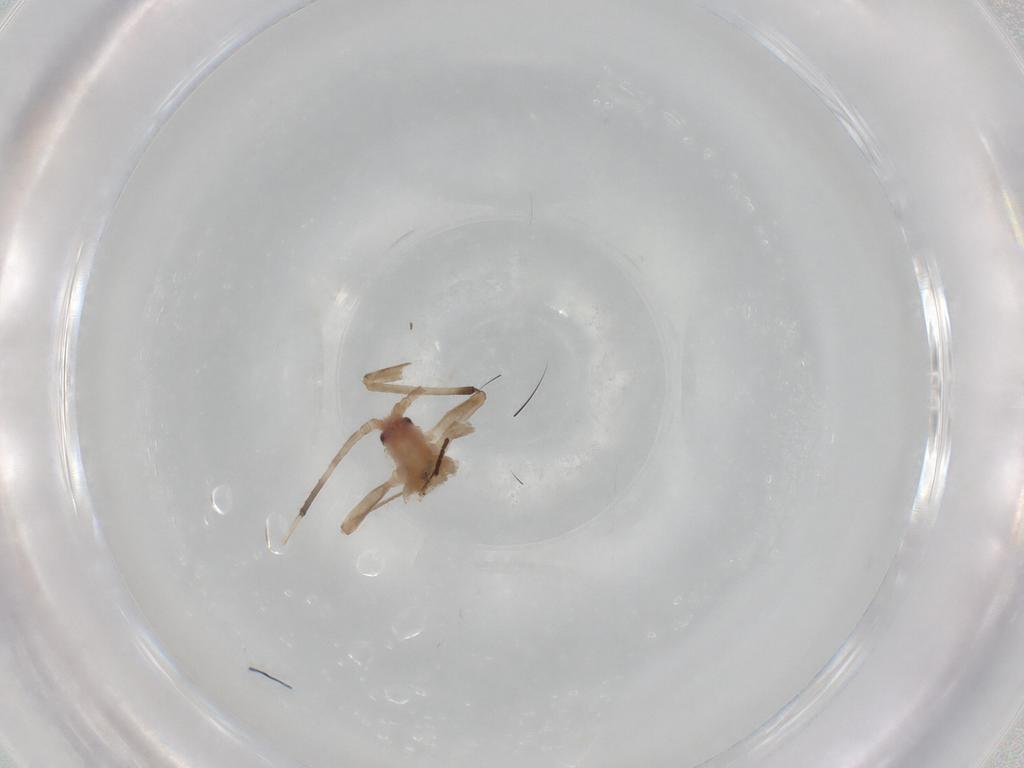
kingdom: Animalia
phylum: Arthropoda
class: Insecta
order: Hemiptera
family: Aphididae
